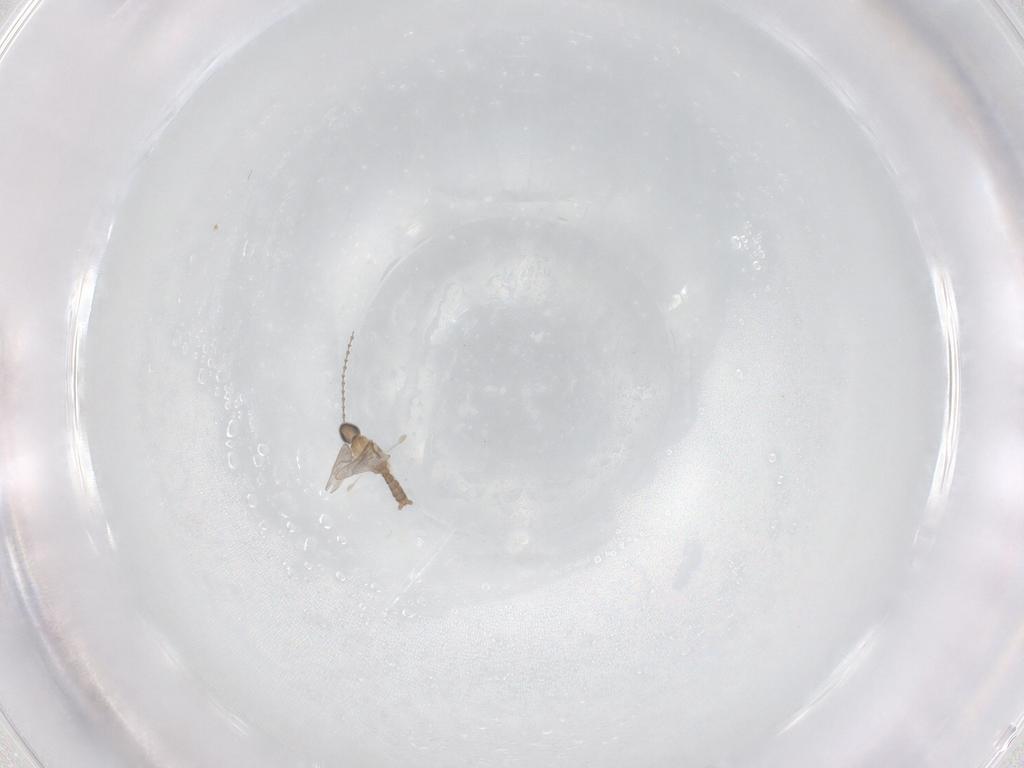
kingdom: Animalia
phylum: Arthropoda
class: Insecta
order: Diptera
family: Cecidomyiidae
